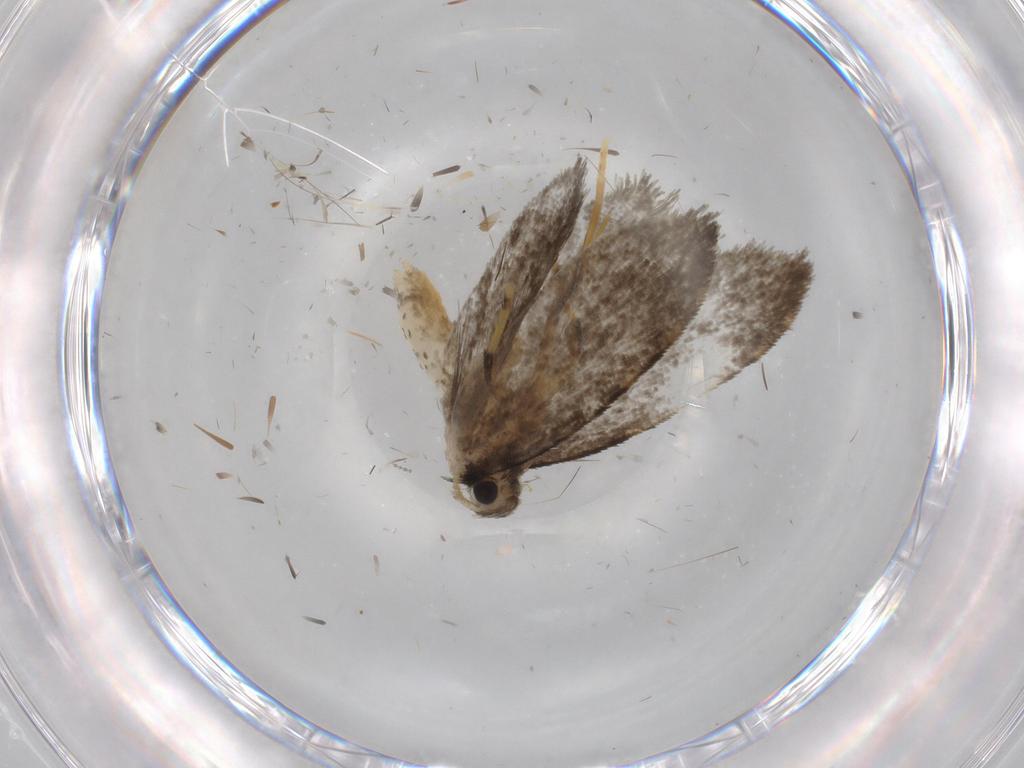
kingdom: Animalia
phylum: Arthropoda
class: Insecta
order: Lepidoptera
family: Psychidae
